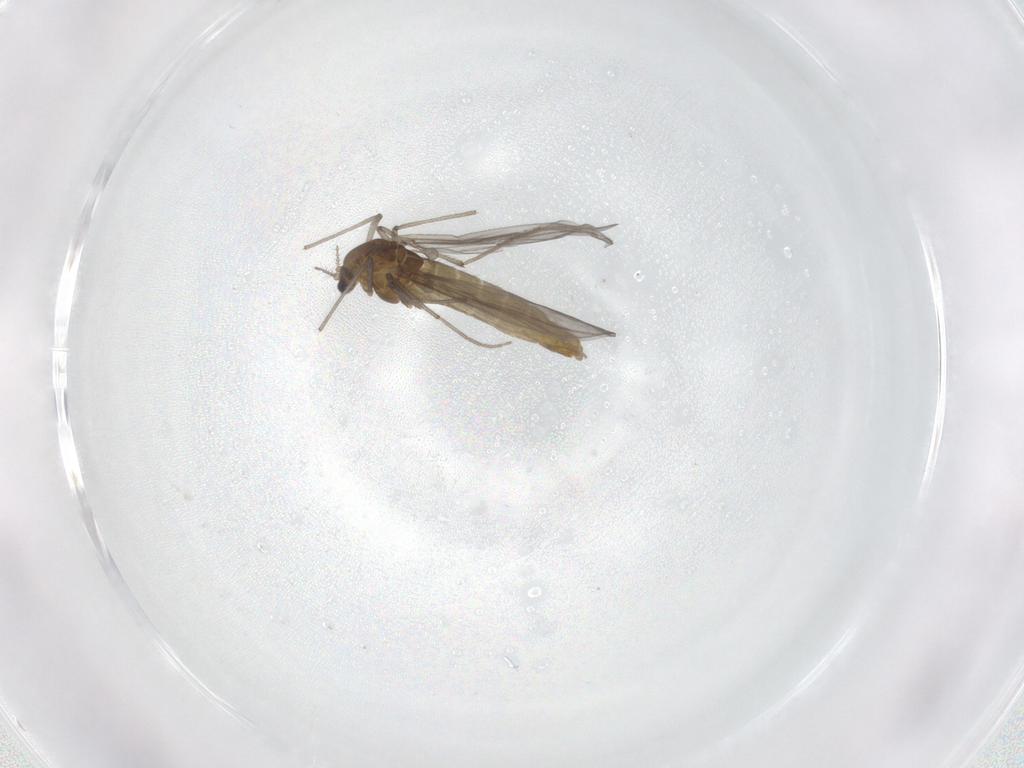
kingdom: Animalia
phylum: Arthropoda
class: Insecta
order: Diptera
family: Chironomidae
